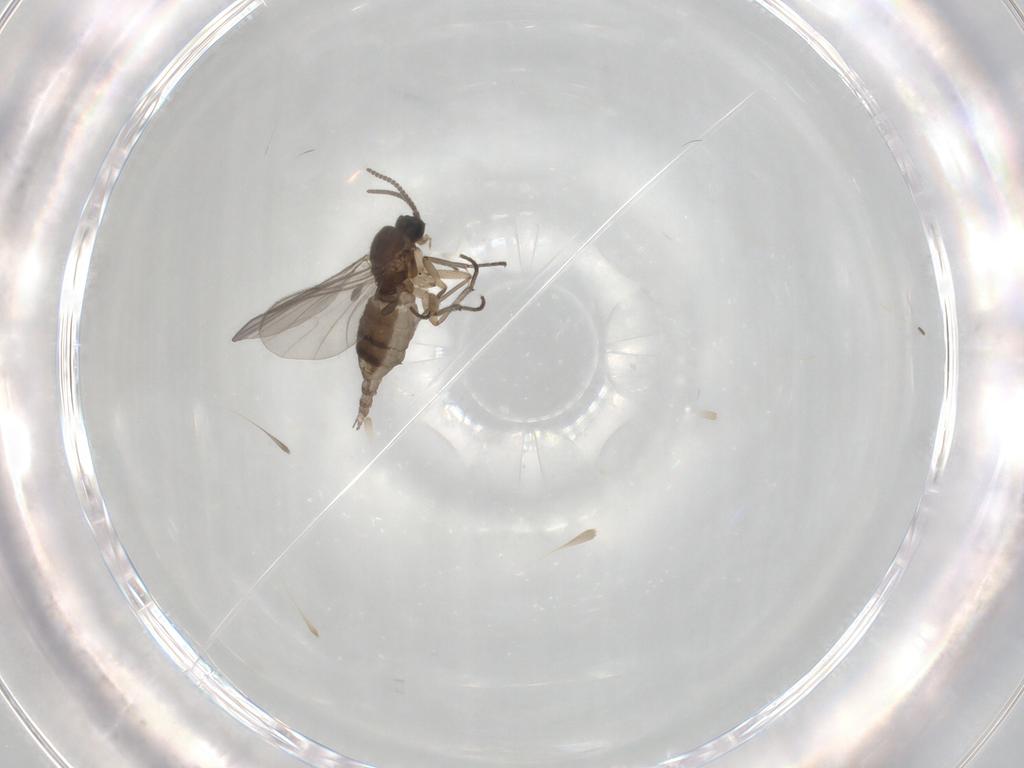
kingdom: Animalia
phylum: Arthropoda
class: Insecta
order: Diptera
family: Sciaridae
